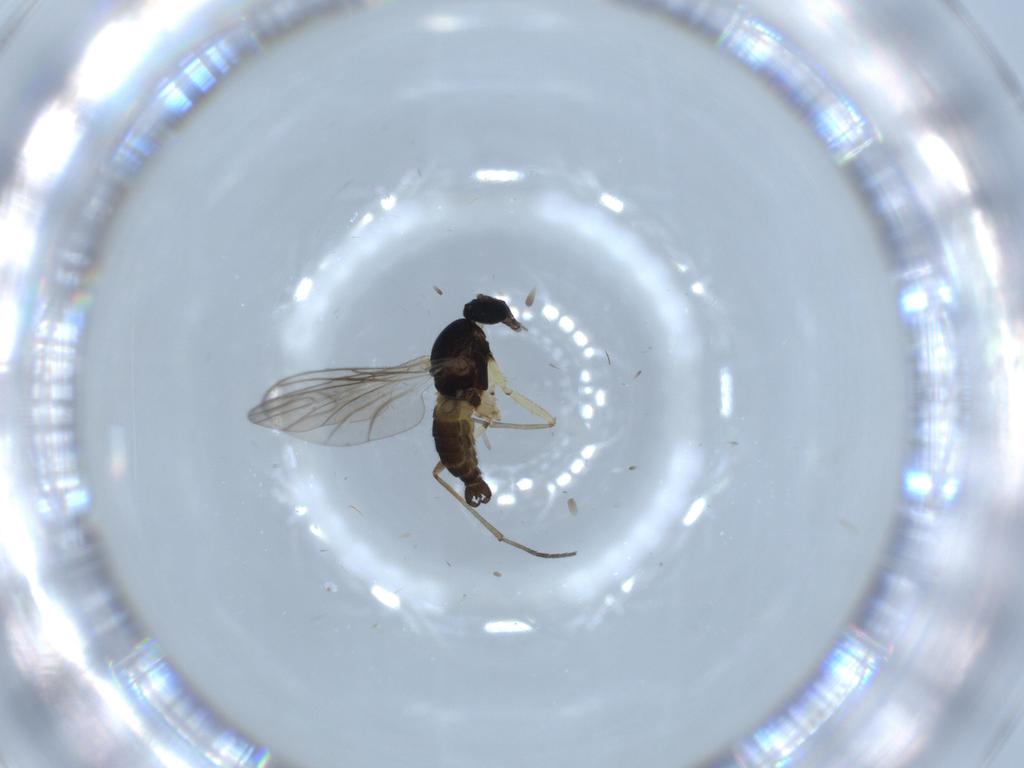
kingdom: Animalia
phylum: Arthropoda
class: Insecta
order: Diptera
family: Sciaridae
